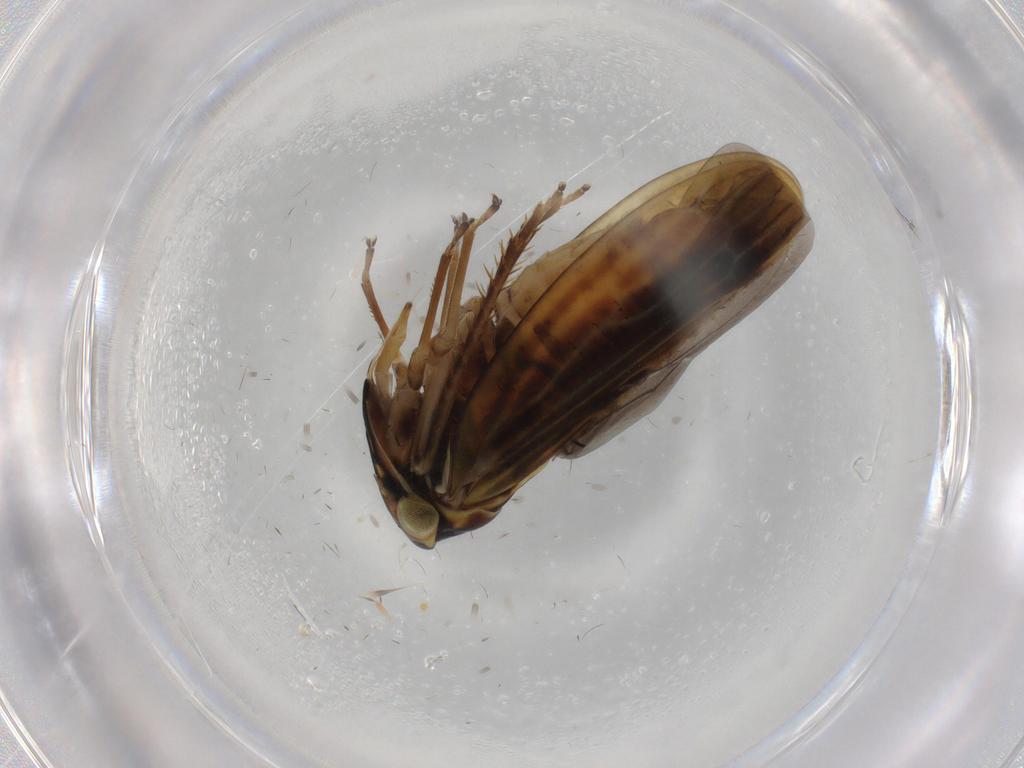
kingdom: Animalia
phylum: Arthropoda
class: Insecta
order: Hemiptera
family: Cicadellidae
